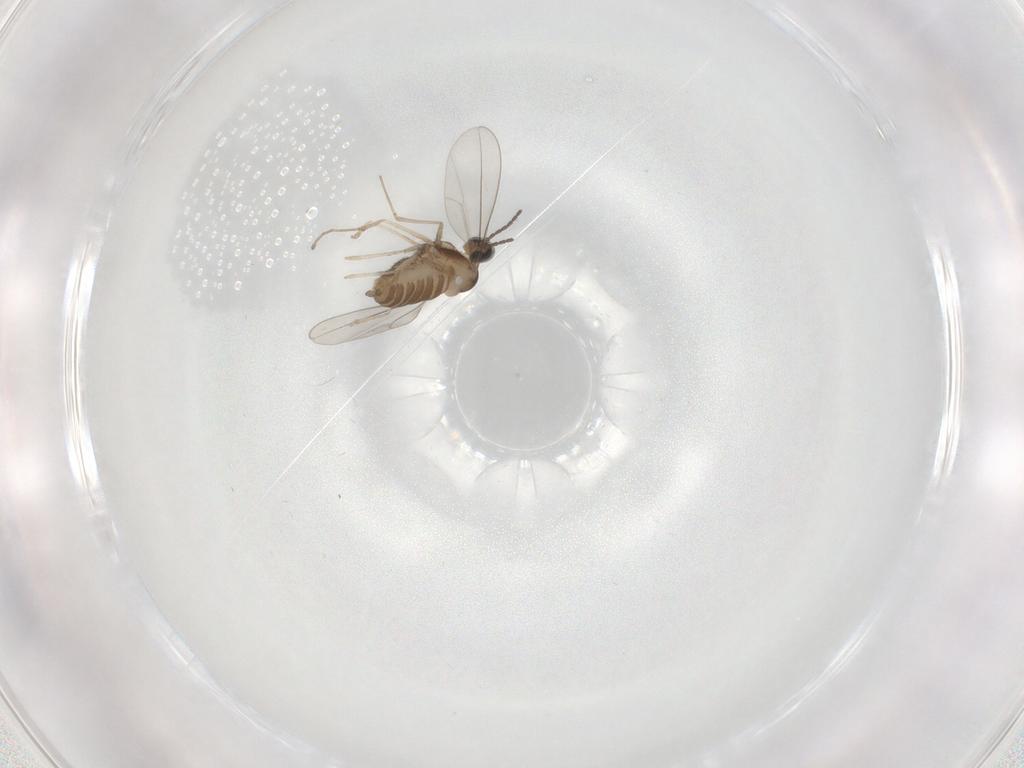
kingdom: Animalia
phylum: Arthropoda
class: Insecta
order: Diptera
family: Cecidomyiidae
